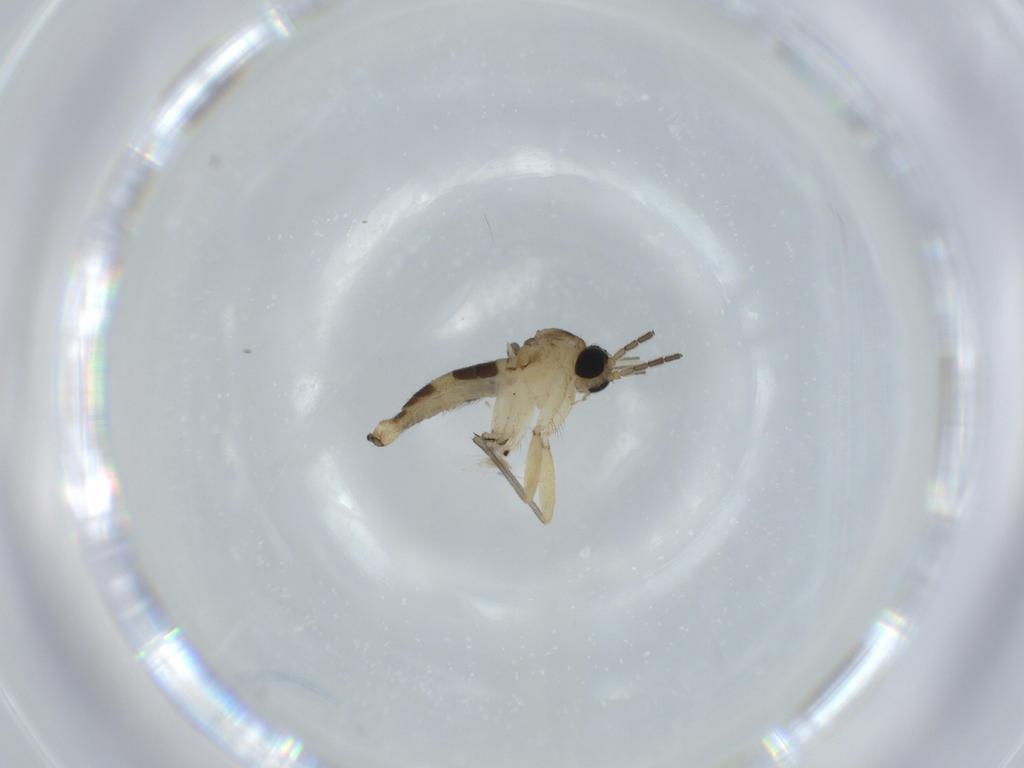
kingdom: Animalia
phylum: Arthropoda
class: Insecta
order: Diptera
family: Sciaridae
